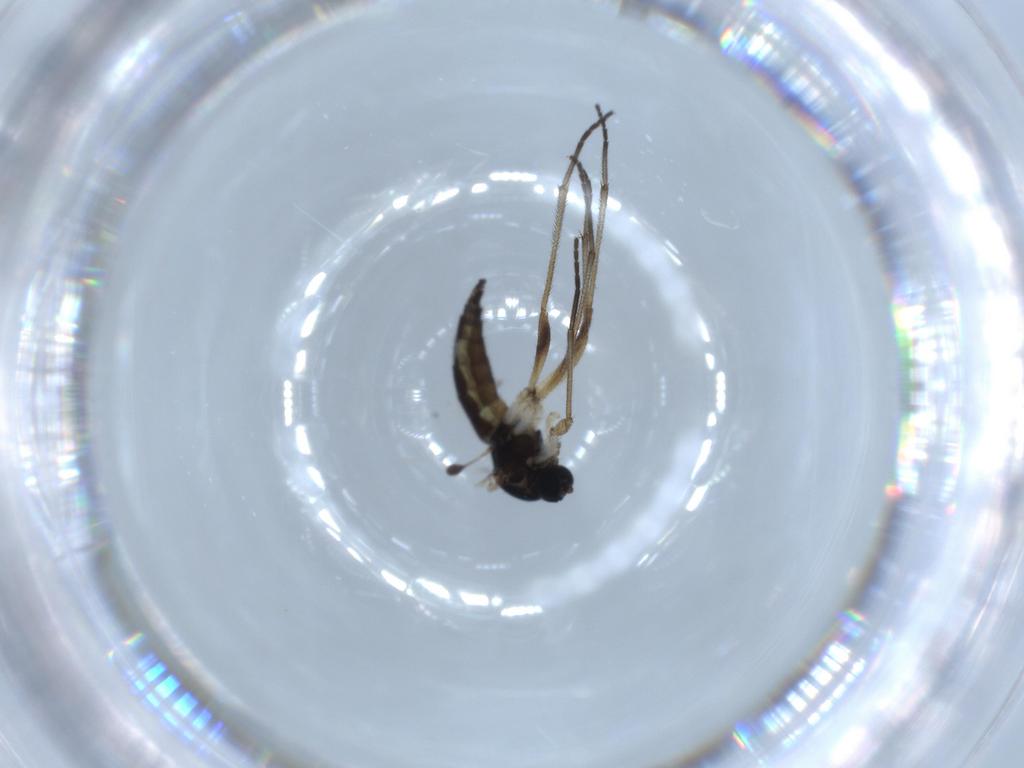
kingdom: Animalia
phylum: Arthropoda
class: Insecta
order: Diptera
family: Sciaridae
